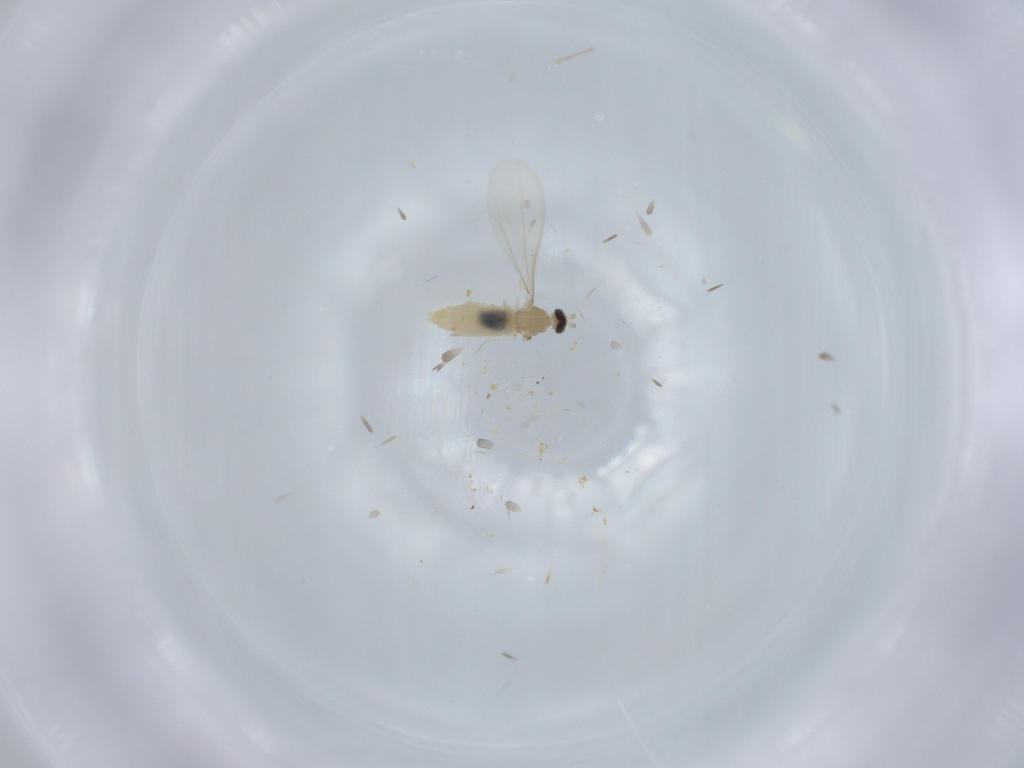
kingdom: Animalia
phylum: Arthropoda
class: Insecta
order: Diptera
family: Cecidomyiidae
